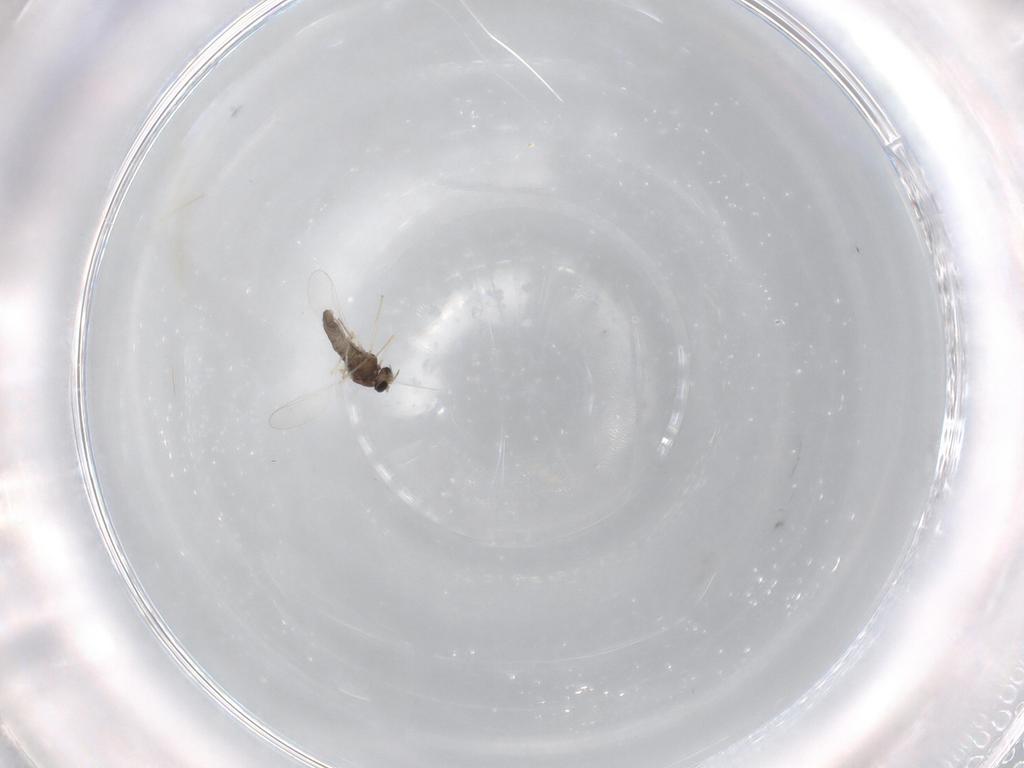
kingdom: Animalia
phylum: Arthropoda
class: Insecta
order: Diptera
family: Chironomidae
